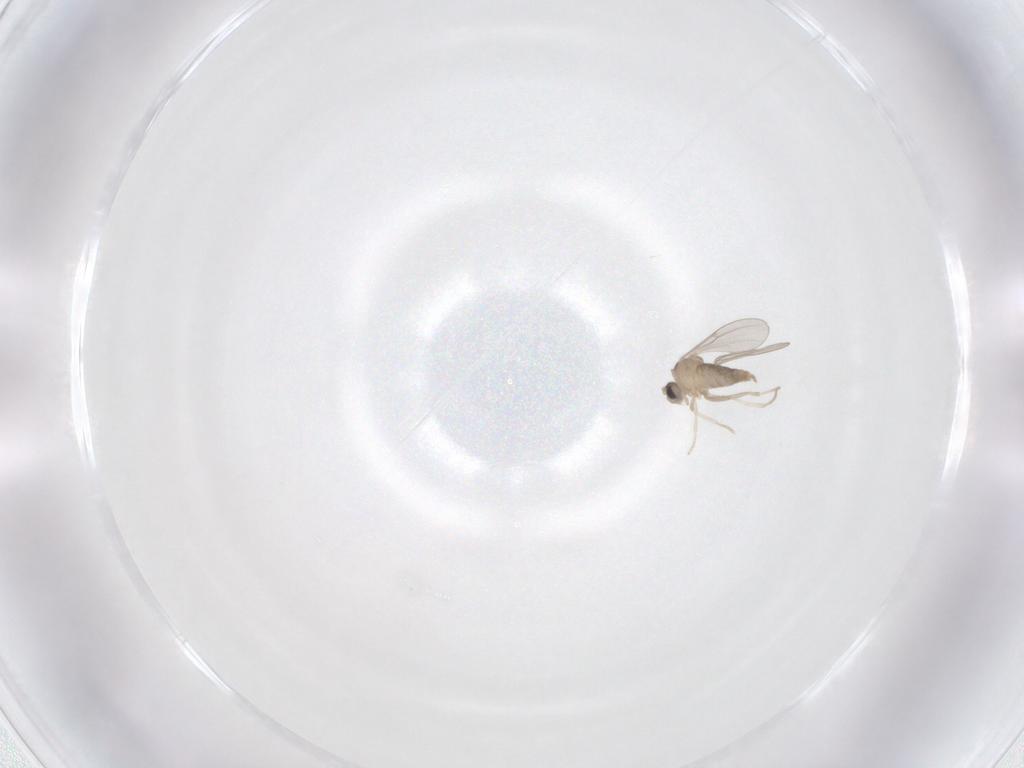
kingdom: Animalia
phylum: Arthropoda
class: Insecta
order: Diptera
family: Cecidomyiidae
